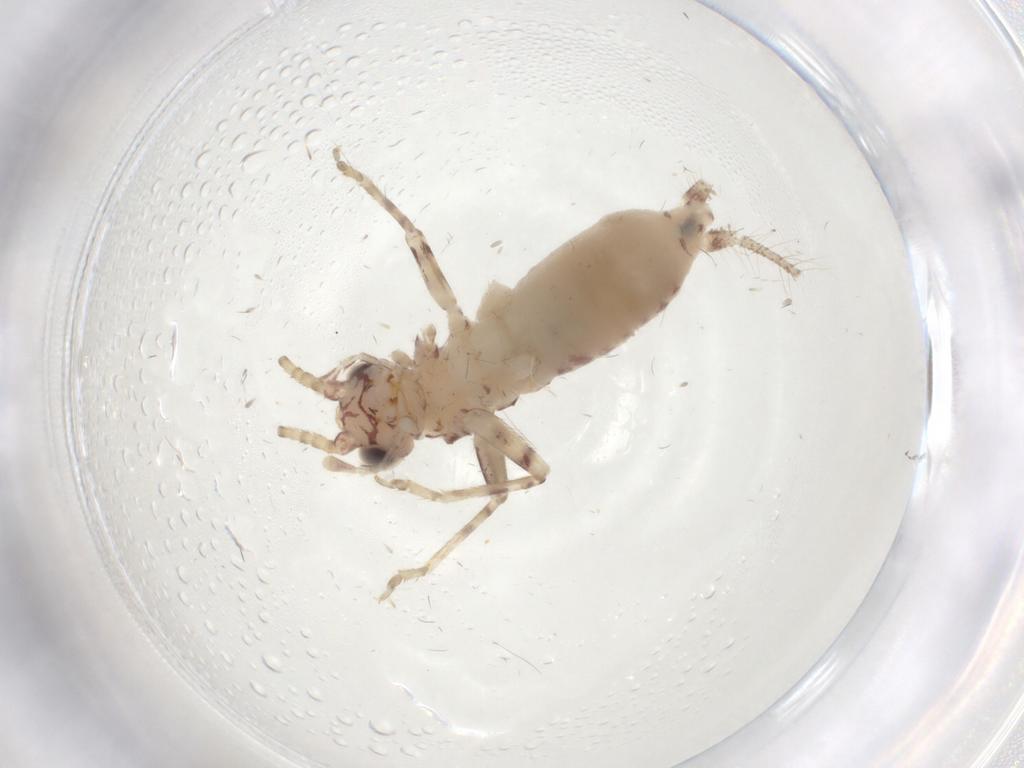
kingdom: Animalia
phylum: Arthropoda
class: Insecta
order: Orthoptera
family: Trigonidiidae
